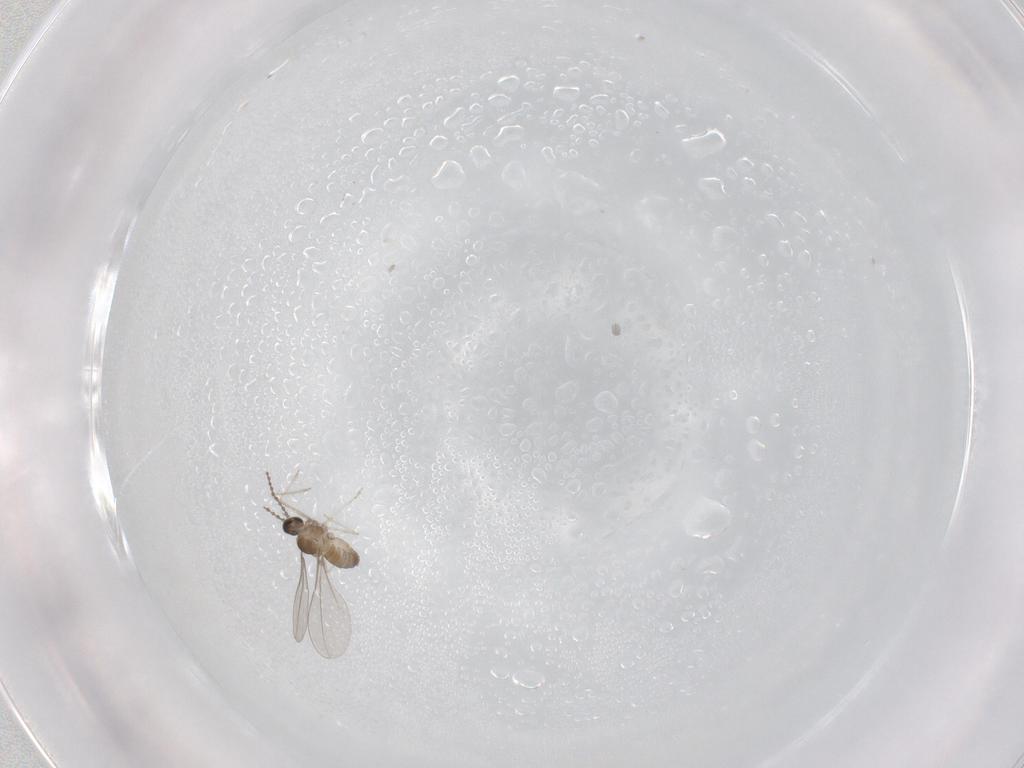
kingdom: Animalia
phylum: Arthropoda
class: Insecta
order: Diptera
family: Cecidomyiidae
